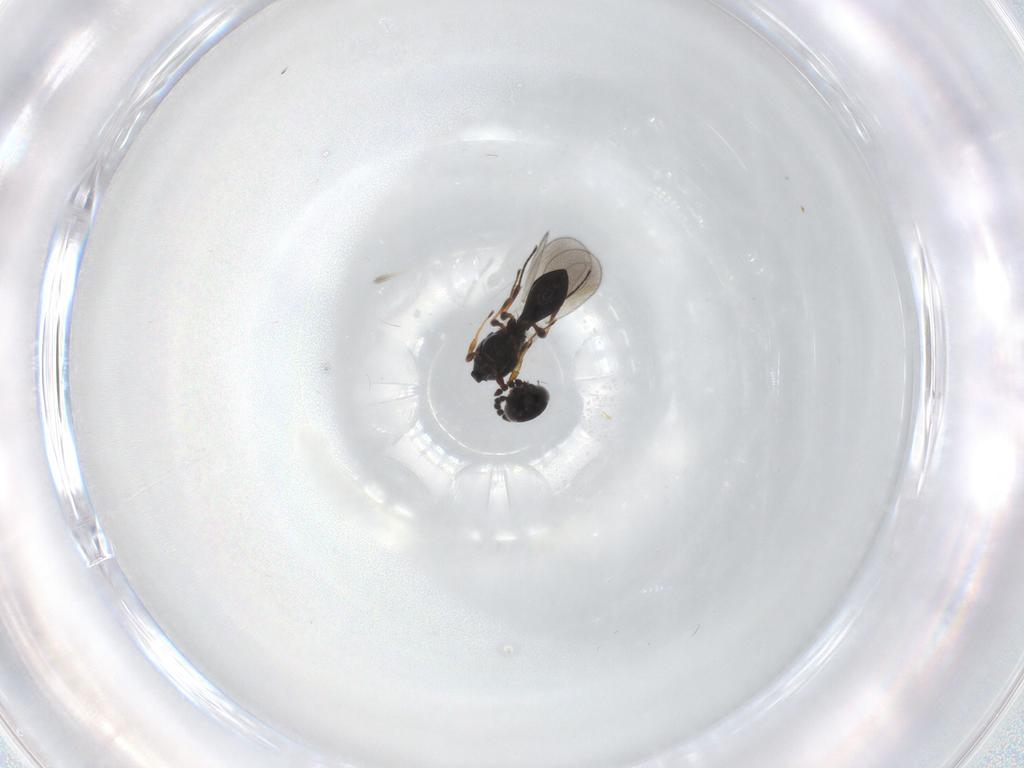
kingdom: Animalia
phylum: Arthropoda
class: Insecta
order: Hymenoptera
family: Platygastridae
